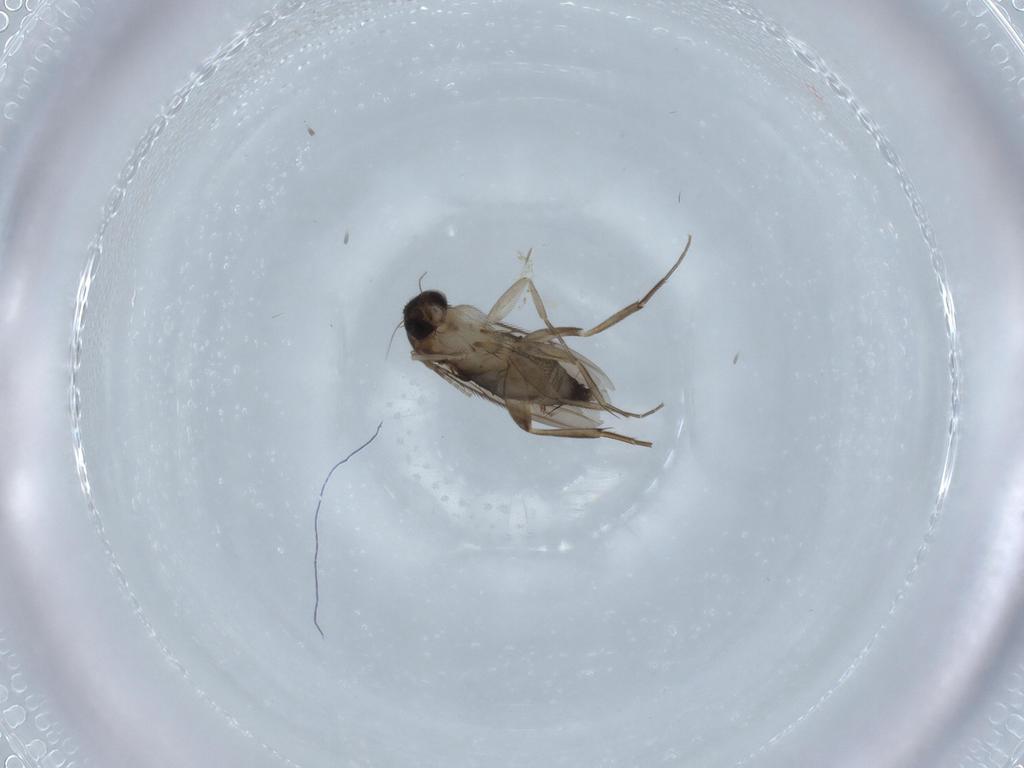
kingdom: Animalia
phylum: Arthropoda
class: Insecta
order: Diptera
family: Phoridae
